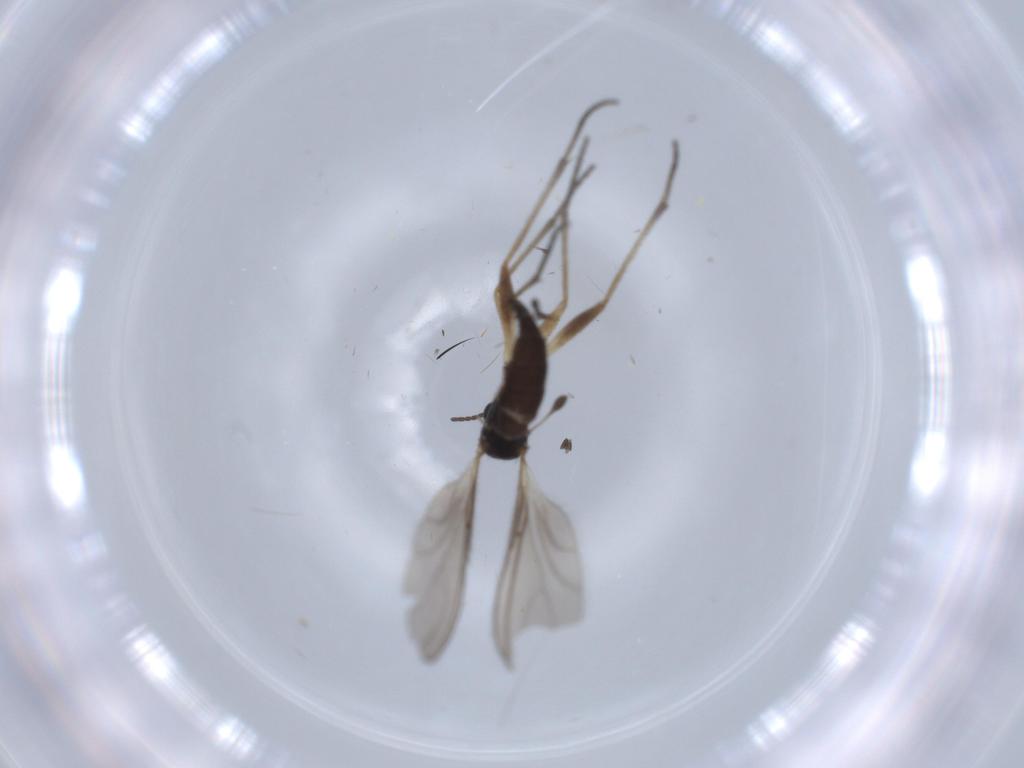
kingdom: Animalia
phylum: Arthropoda
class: Insecta
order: Diptera
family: Sciaridae
